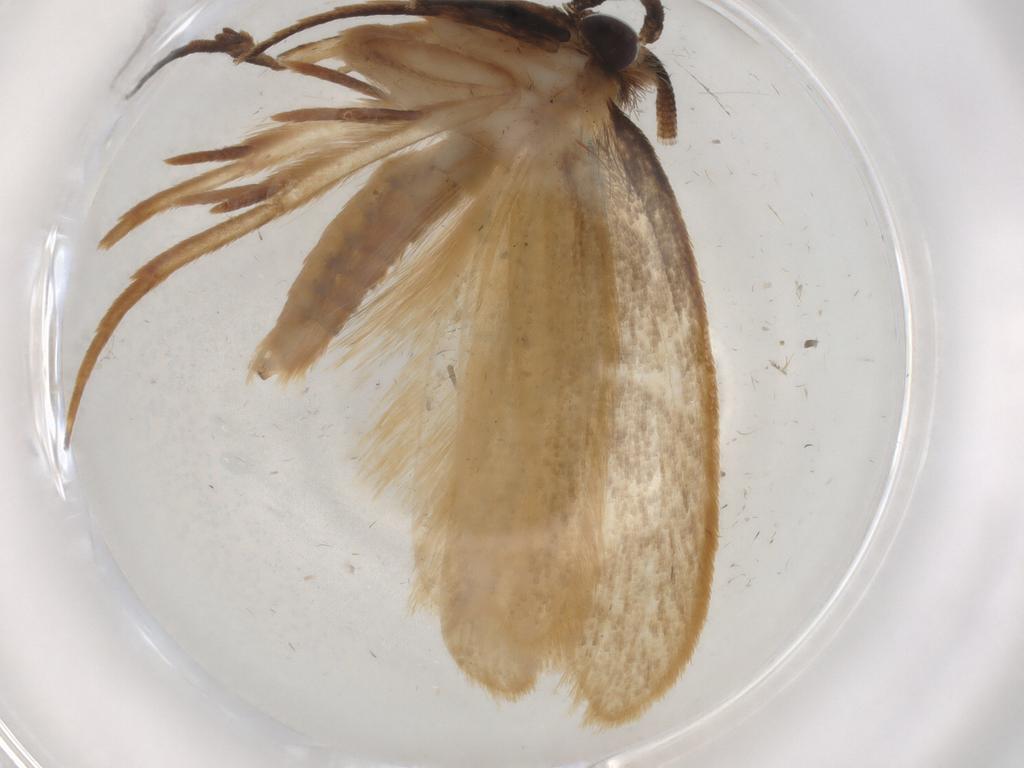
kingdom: Animalia
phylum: Arthropoda
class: Insecta
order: Lepidoptera
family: Tineidae
